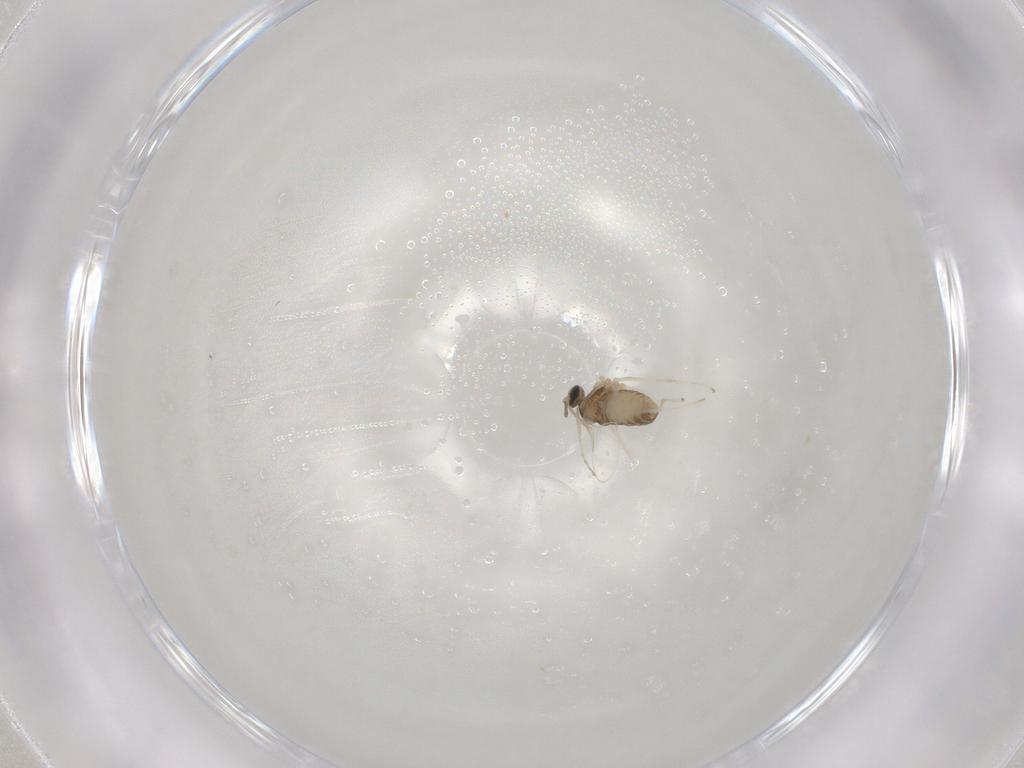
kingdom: Animalia
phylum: Arthropoda
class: Insecta
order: Diptera
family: Cecidomyiidae
